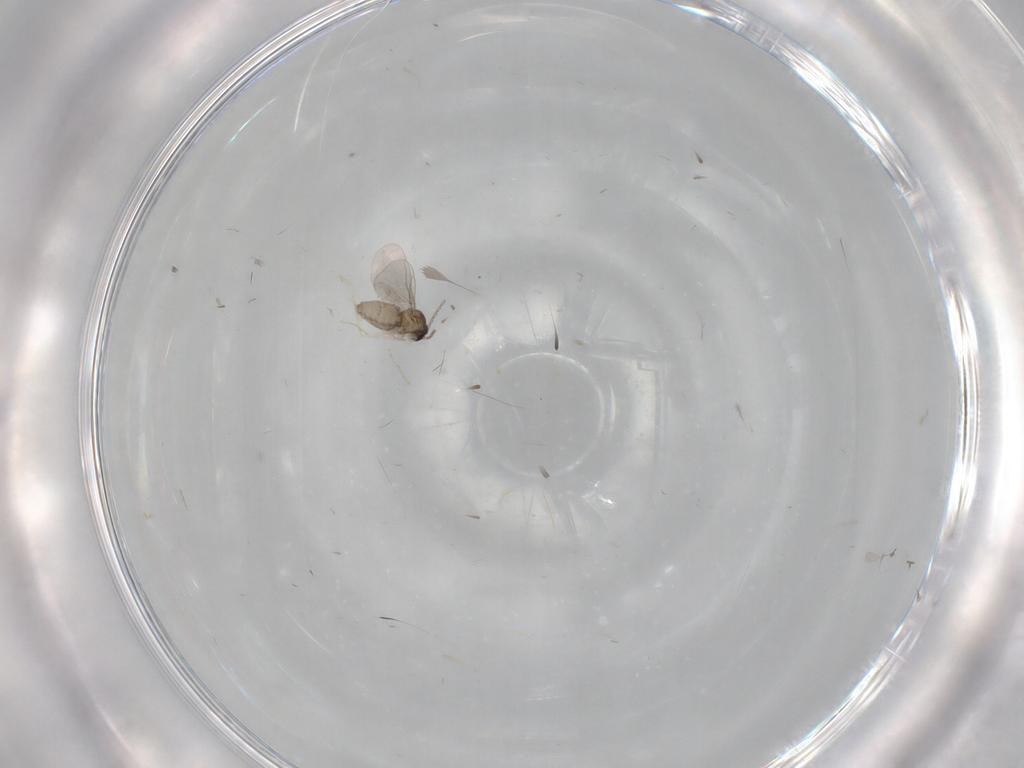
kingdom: Animalia
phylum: Arthropoda
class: Insecta
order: Diptera
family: Cecidomyiidae
